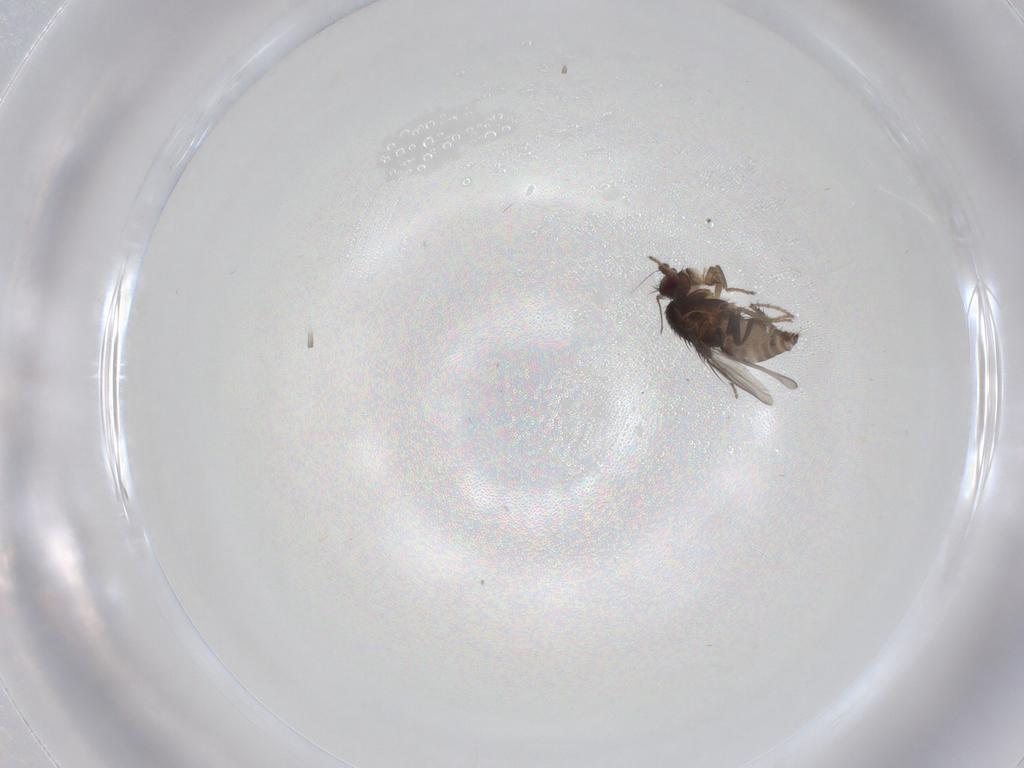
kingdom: Animalia
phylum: Arthropoda
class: Insecta
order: Diptera
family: Sphaeroceridae
